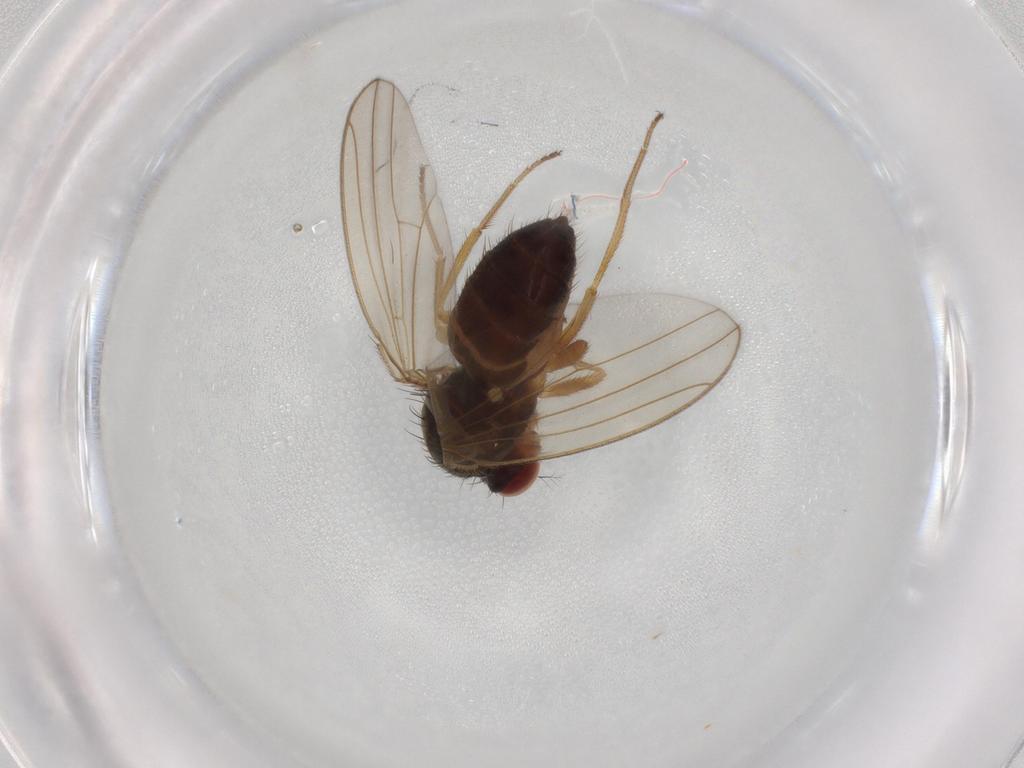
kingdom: Animalia
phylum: Arthropoda
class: Insecta
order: Diptera
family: Drosophilidae
